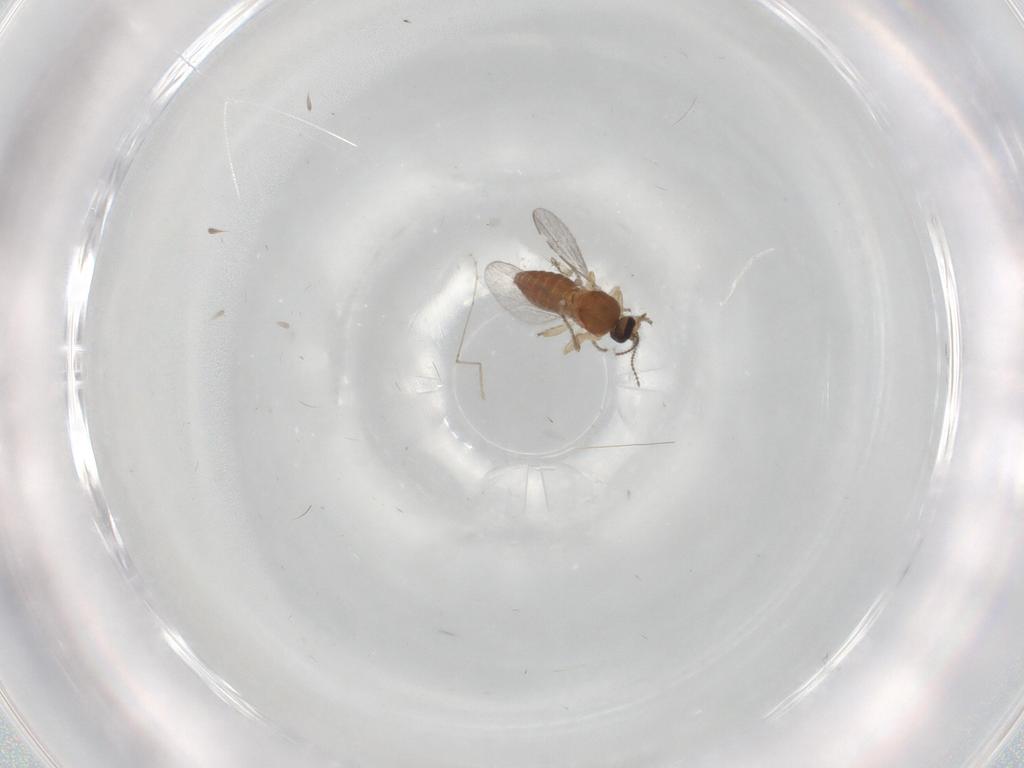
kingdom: Animalia
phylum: Arthropoda
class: Insecta
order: Diptera
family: Ceratopogonidae
